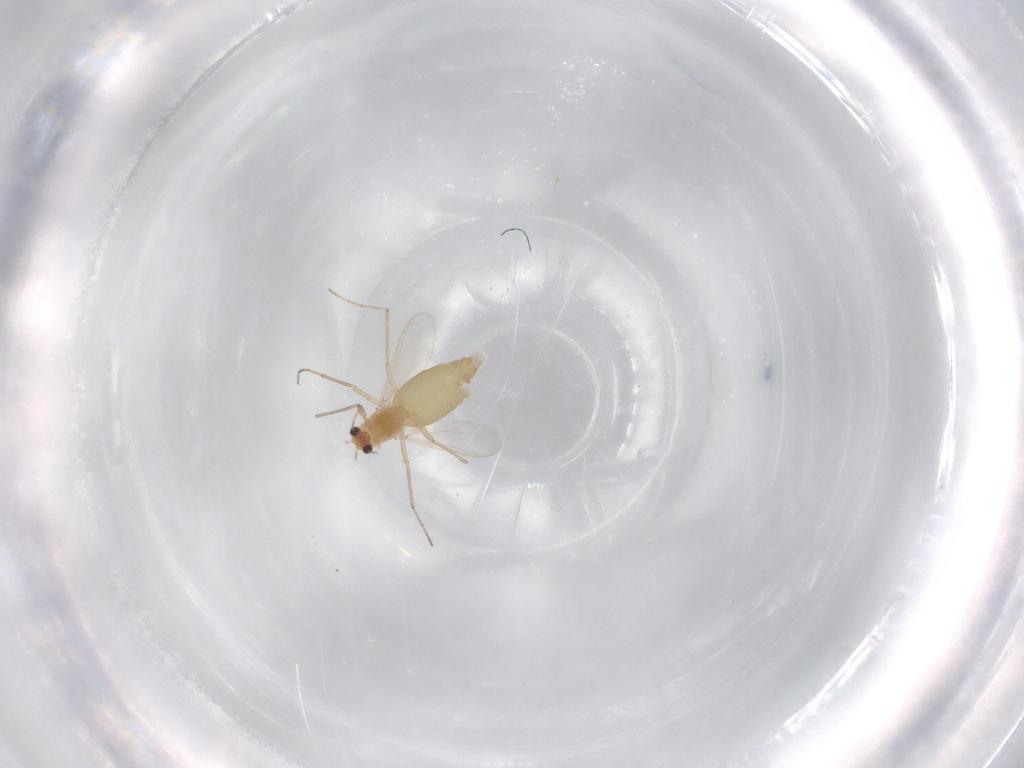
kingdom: Animalia
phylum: Arthropoda
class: Insecta
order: Diptera
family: Chironomidae
